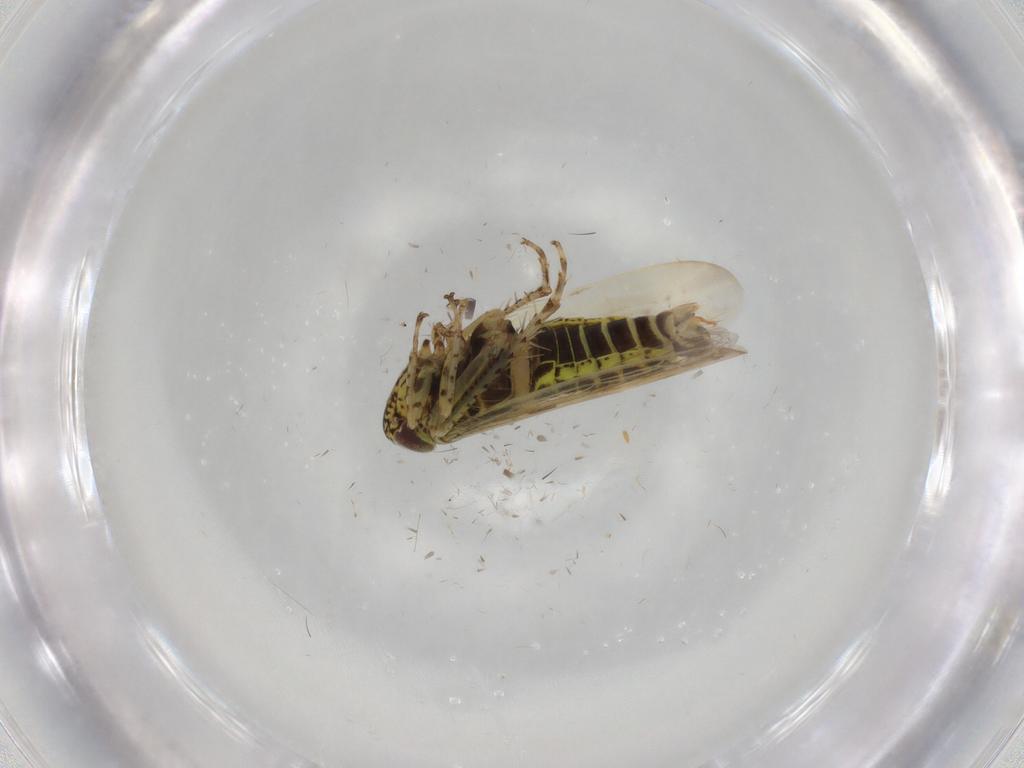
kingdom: Animalia
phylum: Arthropoda
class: Insecta
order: Hemiptera
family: Cicadellidae
